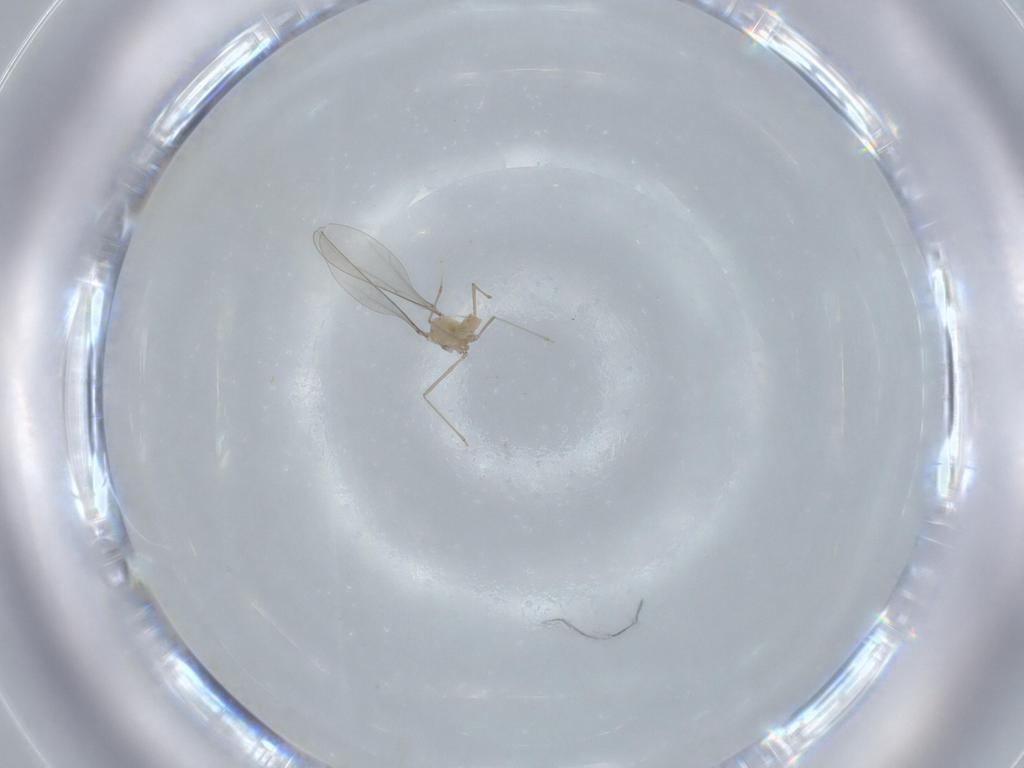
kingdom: Animalia
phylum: Arthropoda
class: Insecta
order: Diptera
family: Cecidomyiidae
